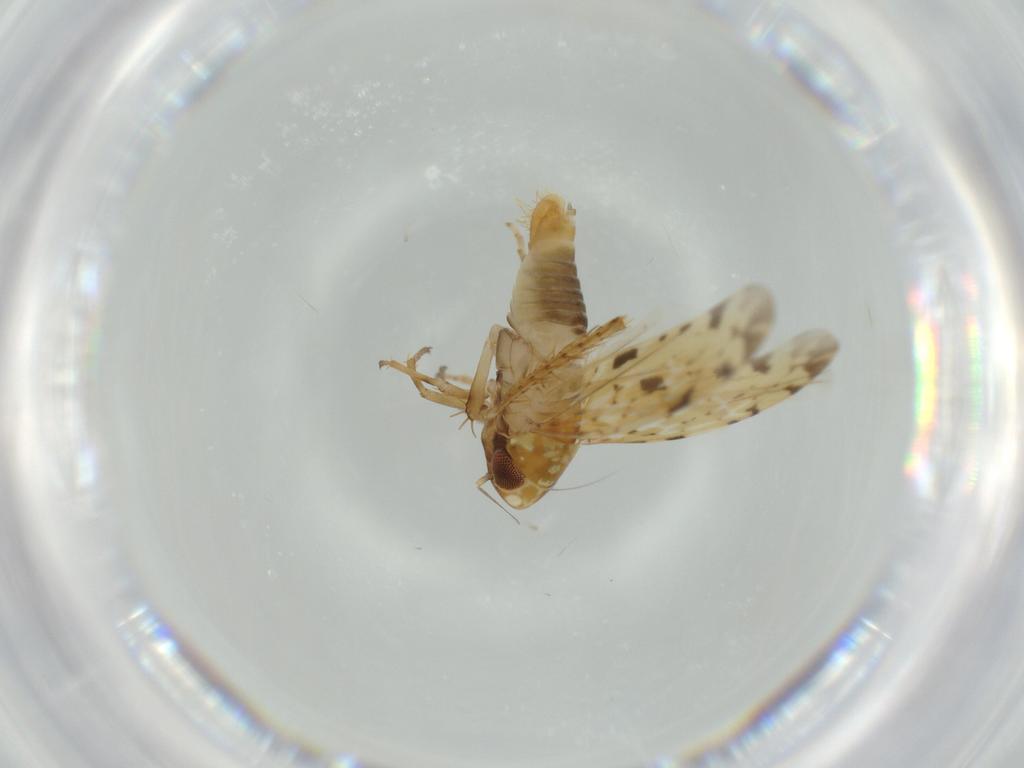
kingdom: Animalia
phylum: Arthropoda
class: Insecta
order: Hemiptera
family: Cicadellidae
